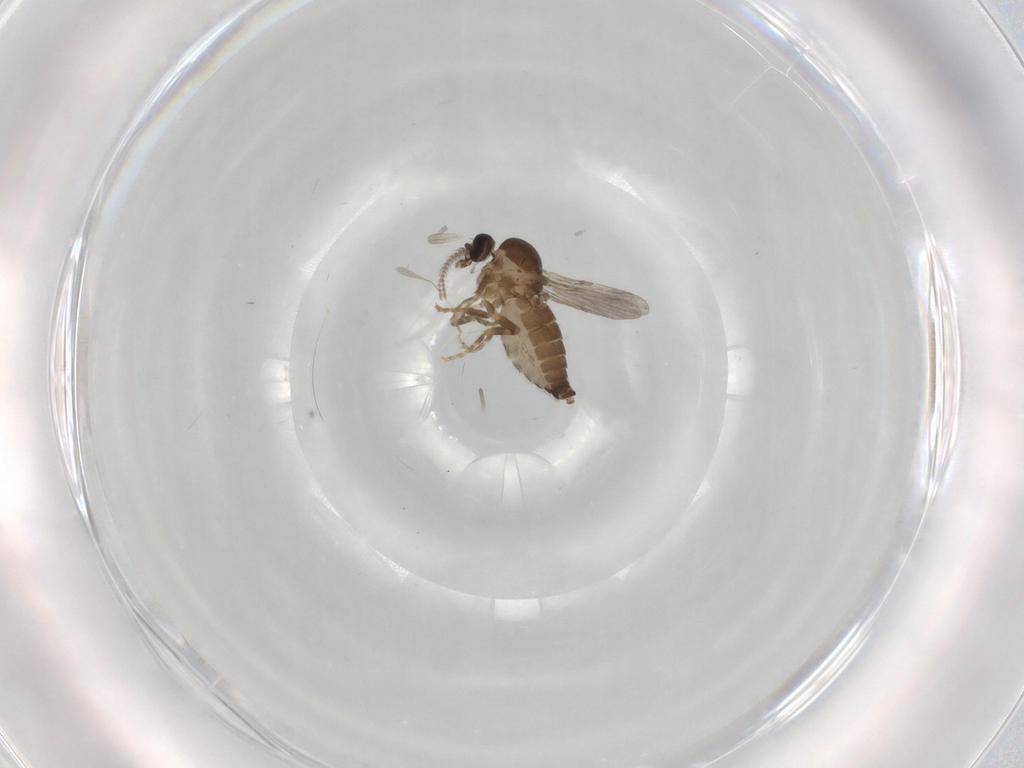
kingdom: Animalia
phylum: Arthropoda
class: Insecta
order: Diptera
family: Ceratopogonidae
